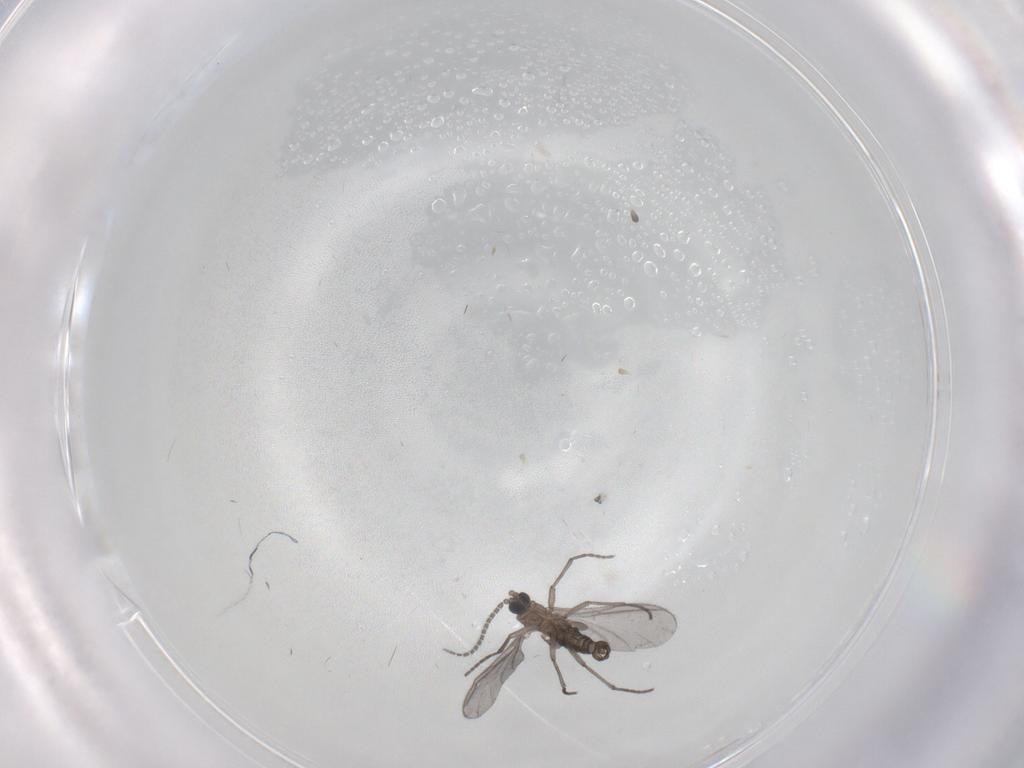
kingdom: Animalia
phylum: Arthropoda
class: Insecta
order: Diptera
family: Sciaridae
